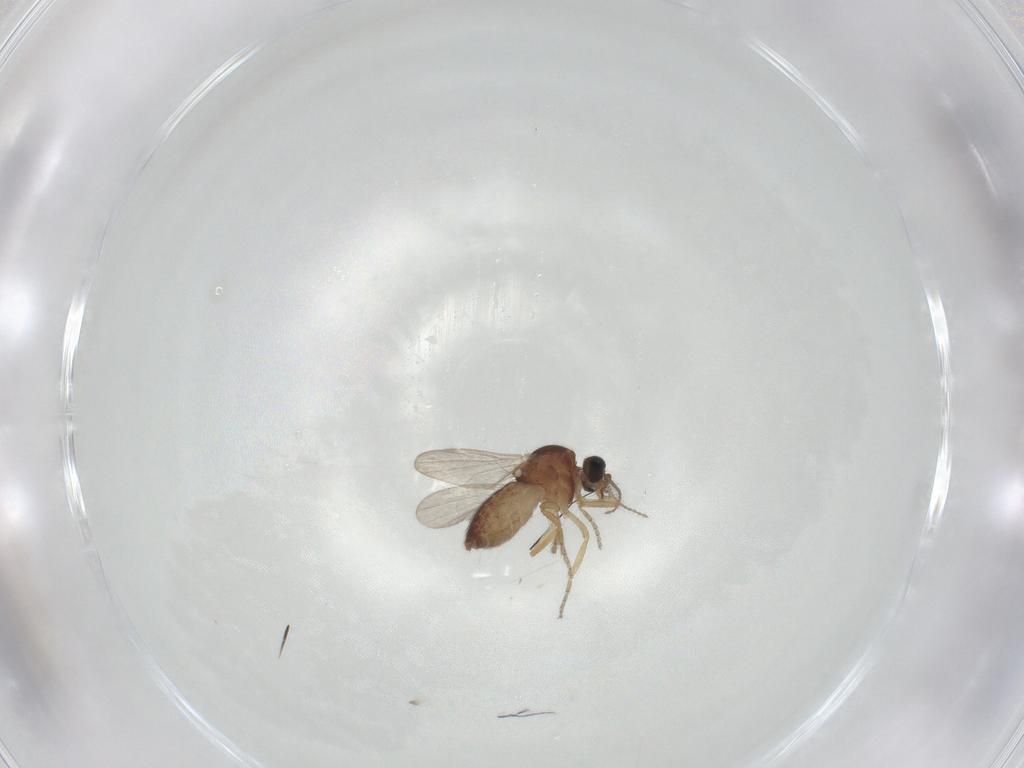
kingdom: Animalia
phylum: Arthropoda
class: Insecta
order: Diptera
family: Ceratopogonidae
